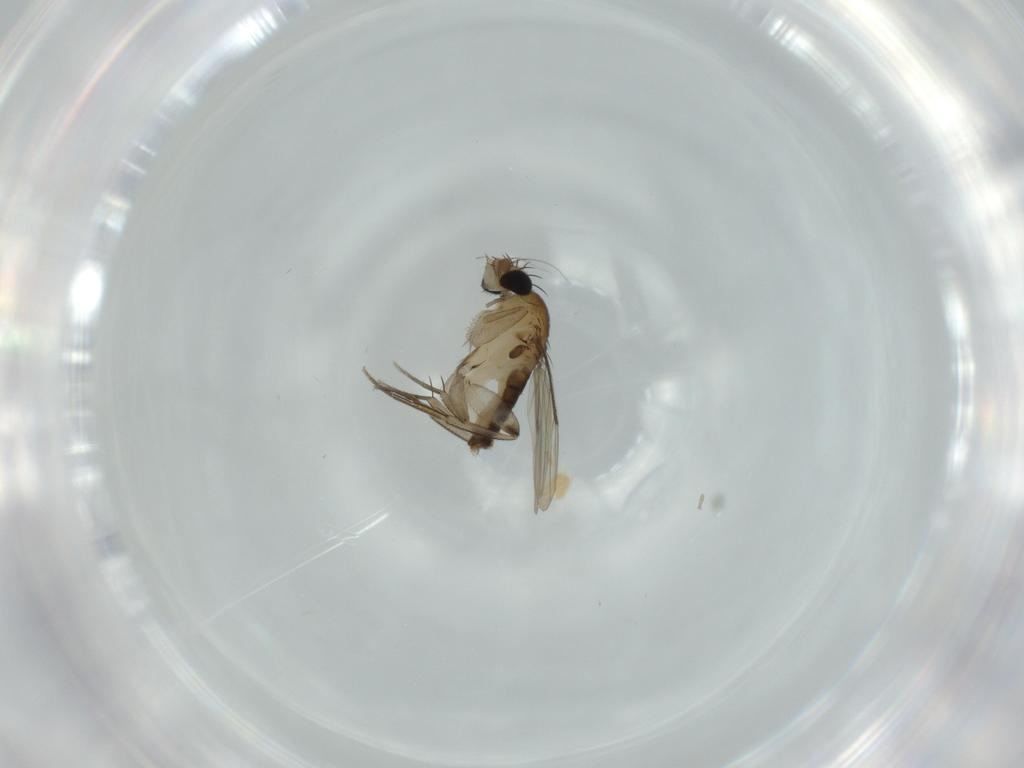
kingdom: Animalia
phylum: Arthropoda
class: Insecta
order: Diptera
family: Phoridae
